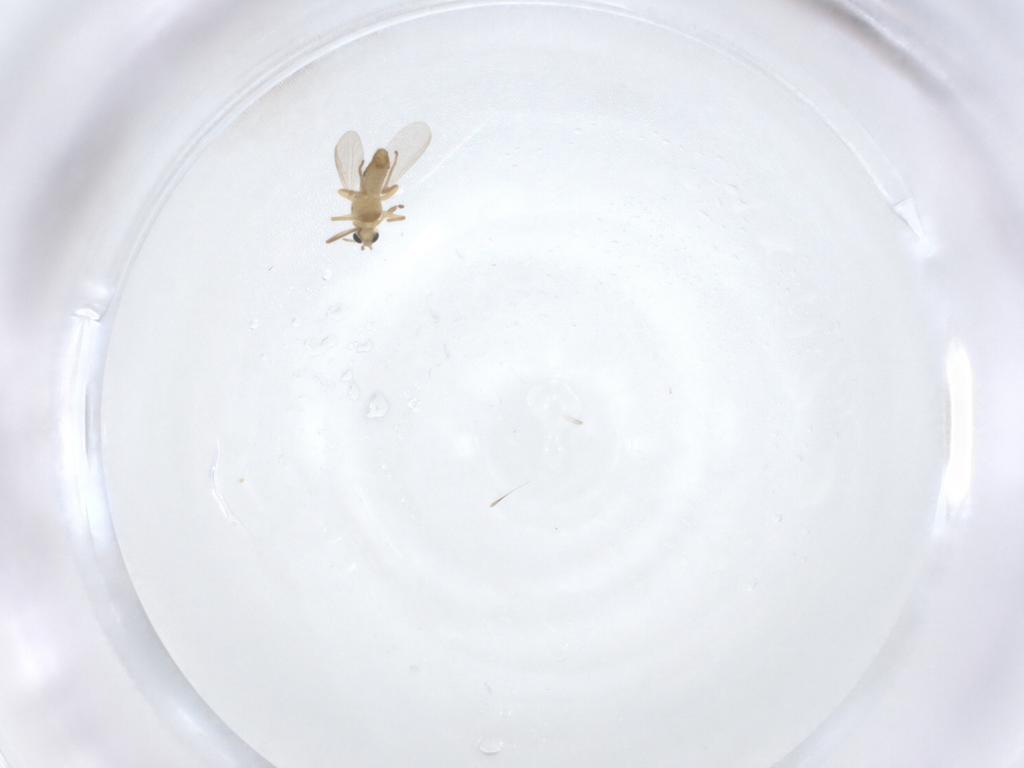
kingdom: Animalia
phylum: Arthropoda
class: Insecta
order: Diptera
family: Chironomidae
